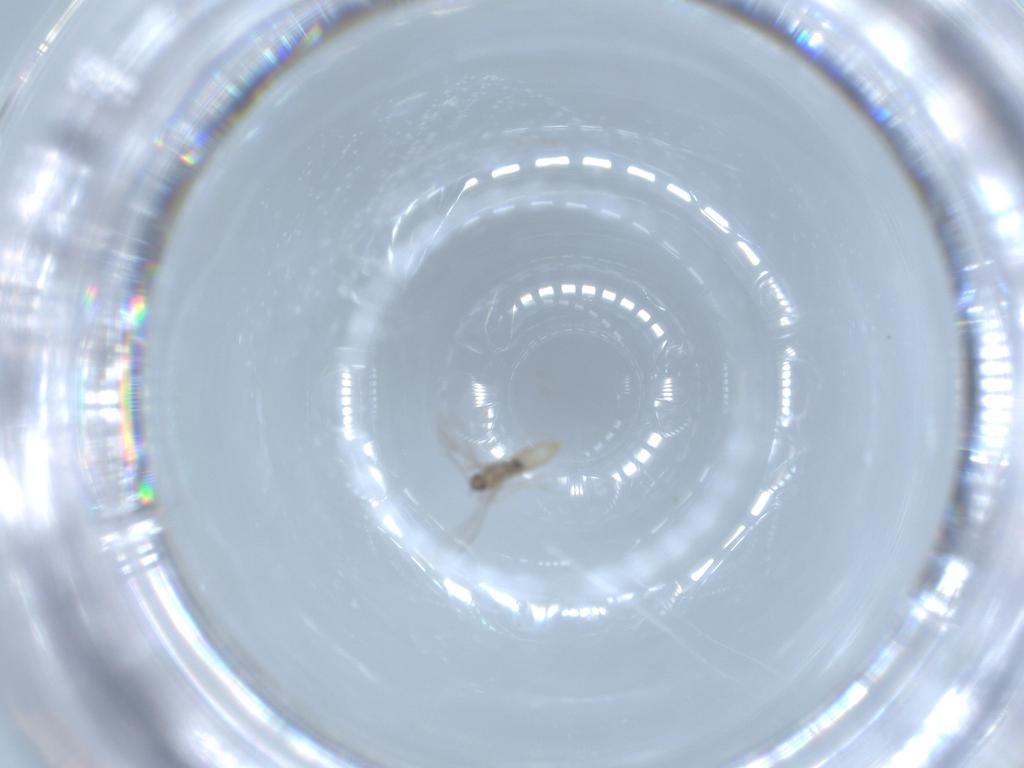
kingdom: Animalia
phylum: Arthropoda
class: Insecta
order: Diptera
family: Cecidomyiidae
